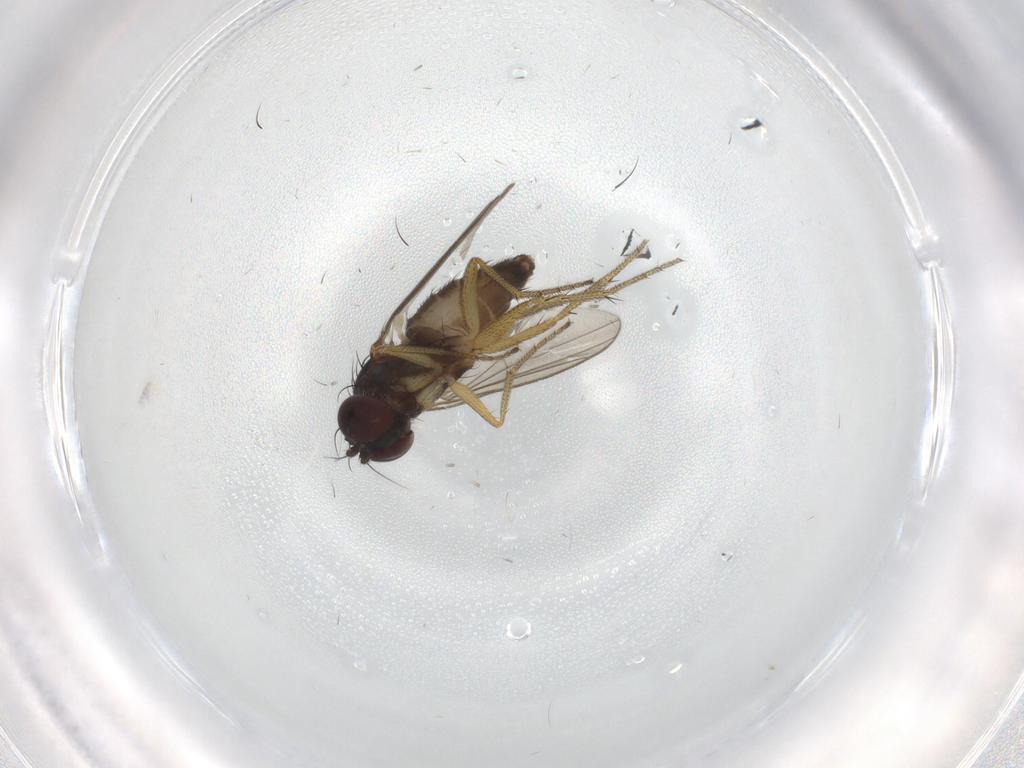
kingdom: Animalia
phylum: Arthropoda
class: Insecta
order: Diptera
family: Dolichopodidae
